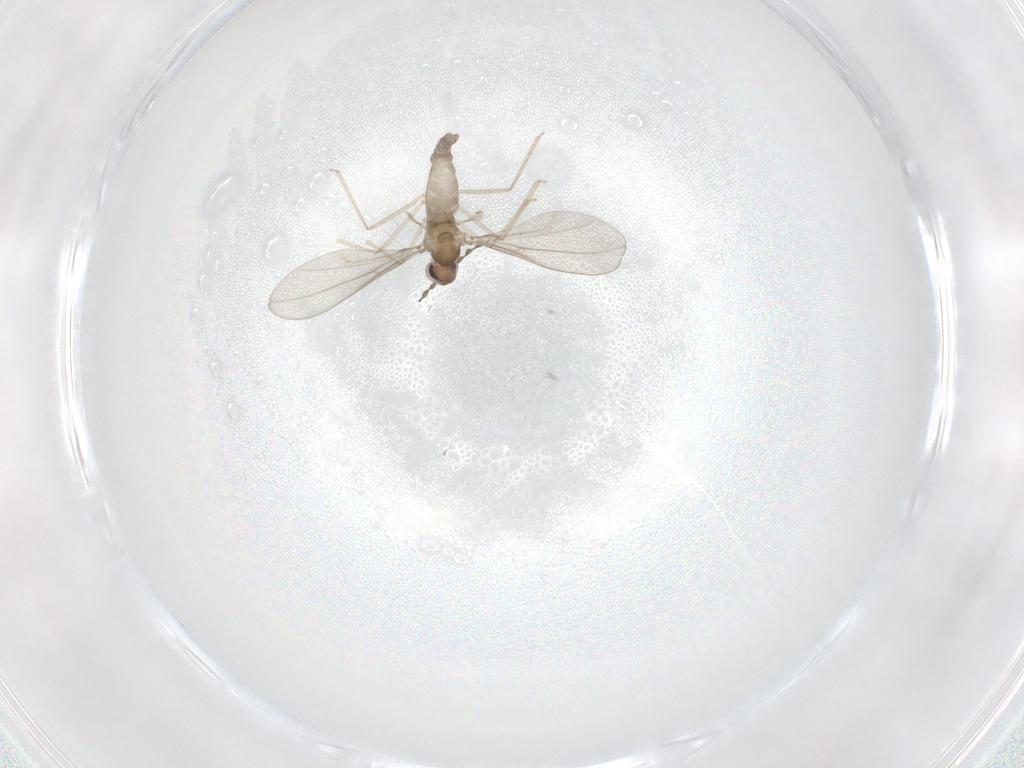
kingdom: Animalia
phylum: Arthropoda
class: Insecta
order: Diptera
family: Cecidomyiidae
